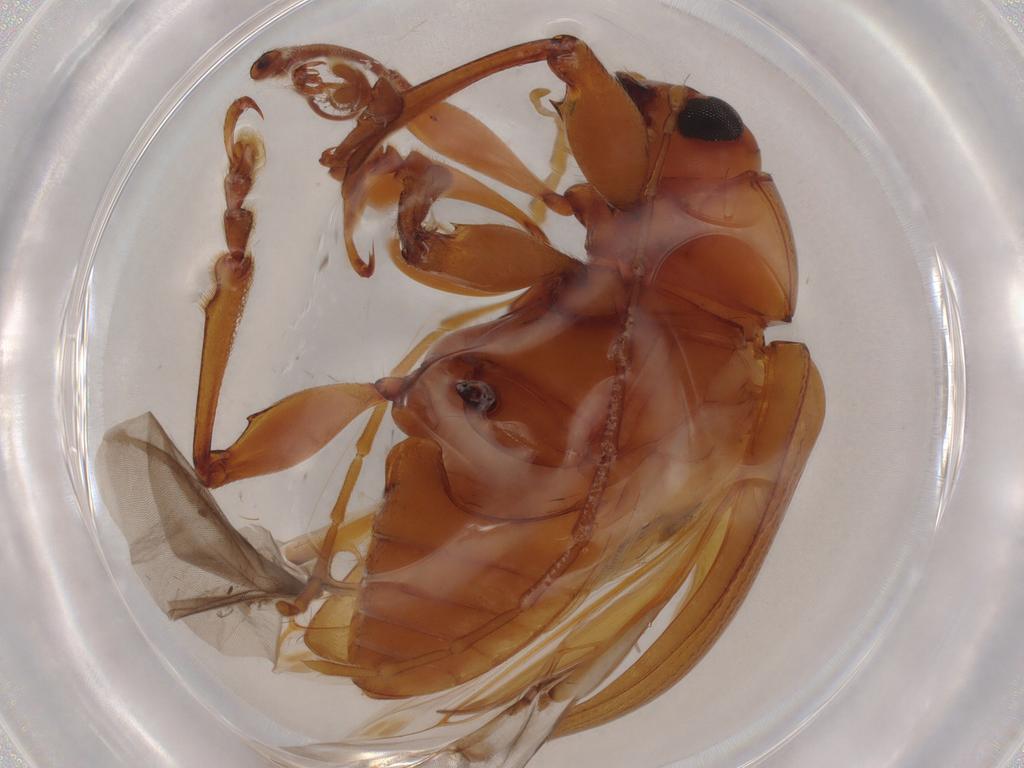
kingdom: Animalia
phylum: Arthropoda
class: Insecta
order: Coleoptera
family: Chrysomelidae
